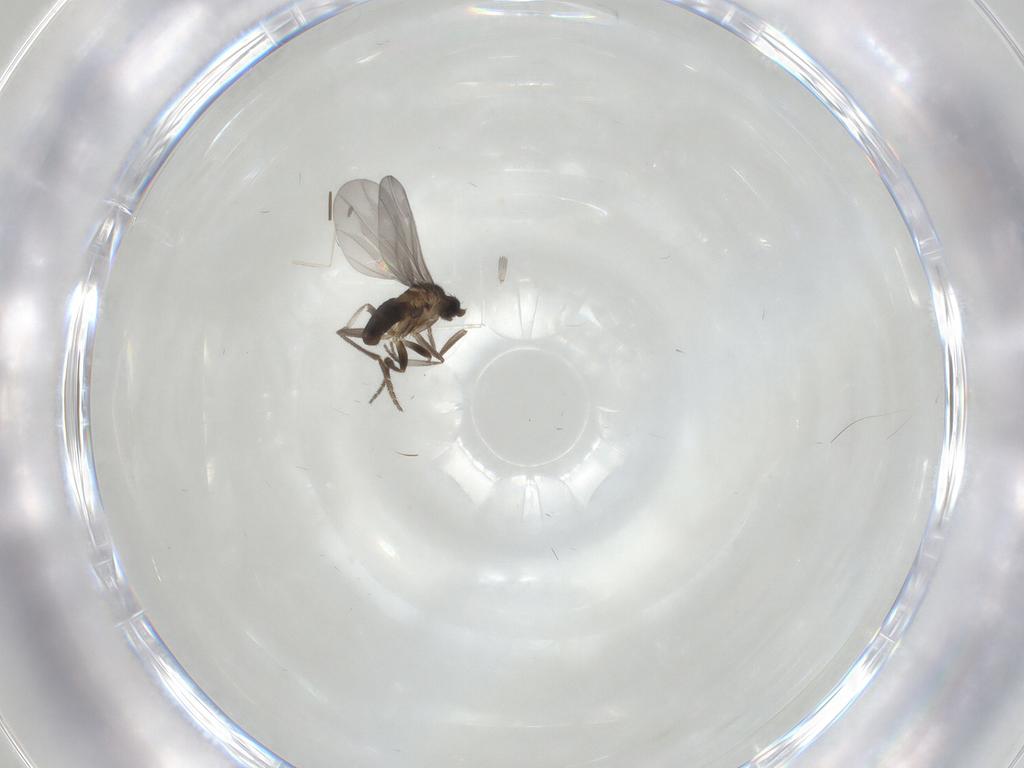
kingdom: Animalia
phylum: Arthropoda
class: Insecta
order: Diptera
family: Phoridae
